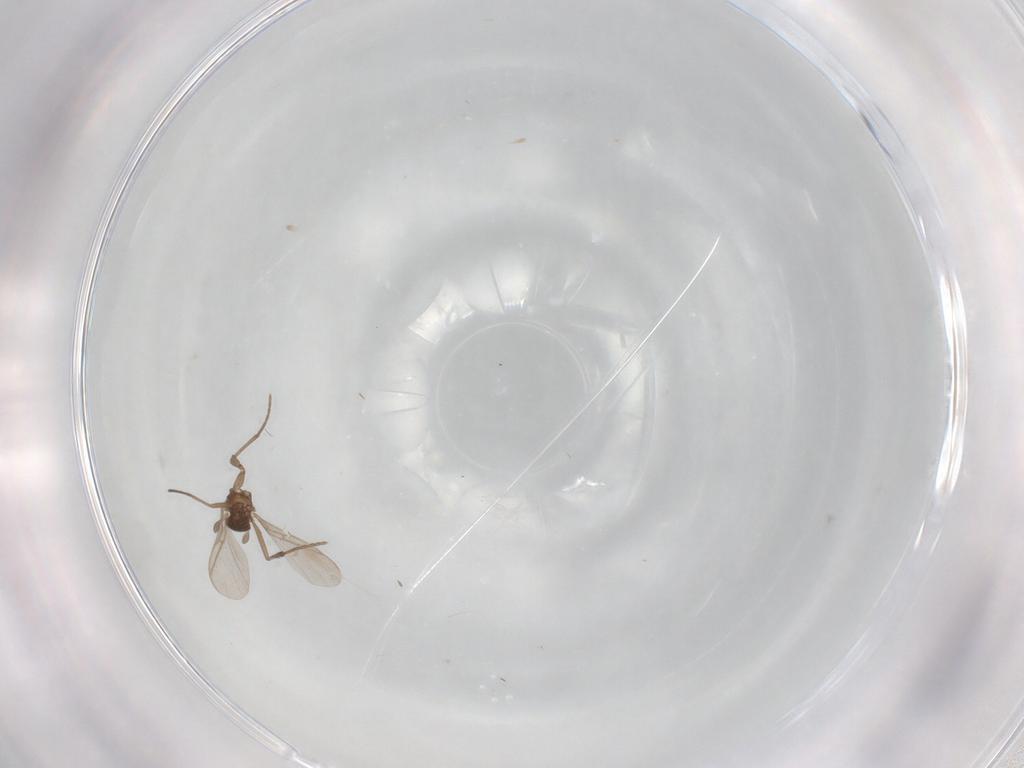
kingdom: Animalia
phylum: Arthropoda
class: Insecta
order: Diptera
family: Sciaridae
